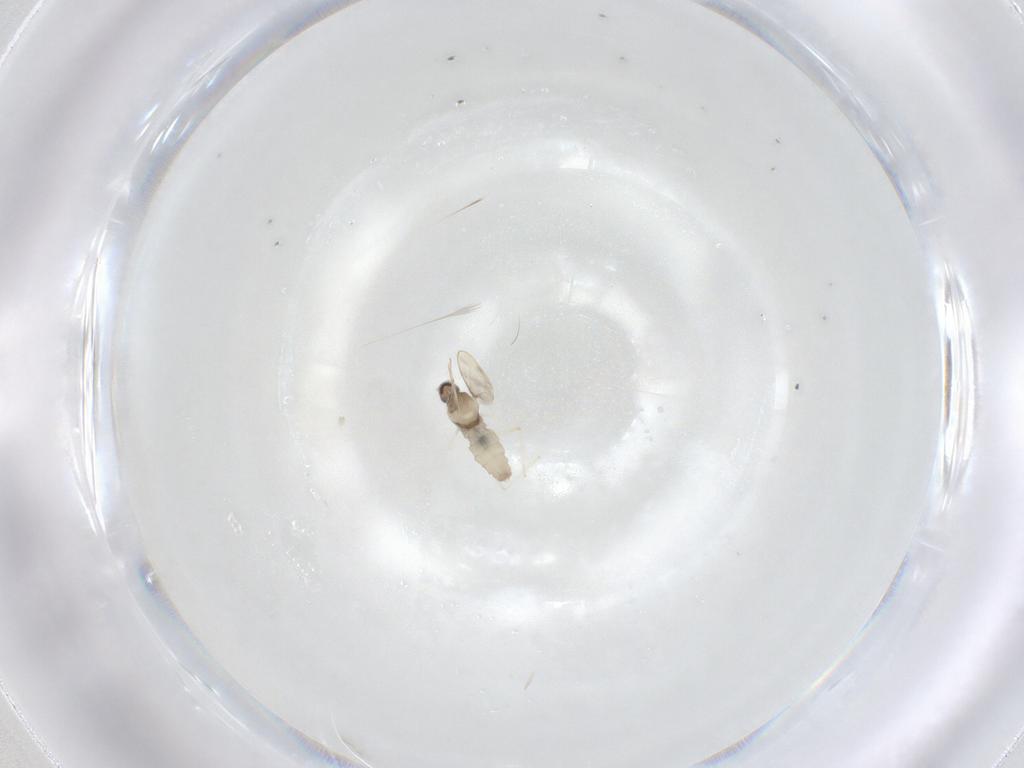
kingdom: Animalia
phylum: Arthropoda
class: Insecta
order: Diptera
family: Cecidomyiidae
